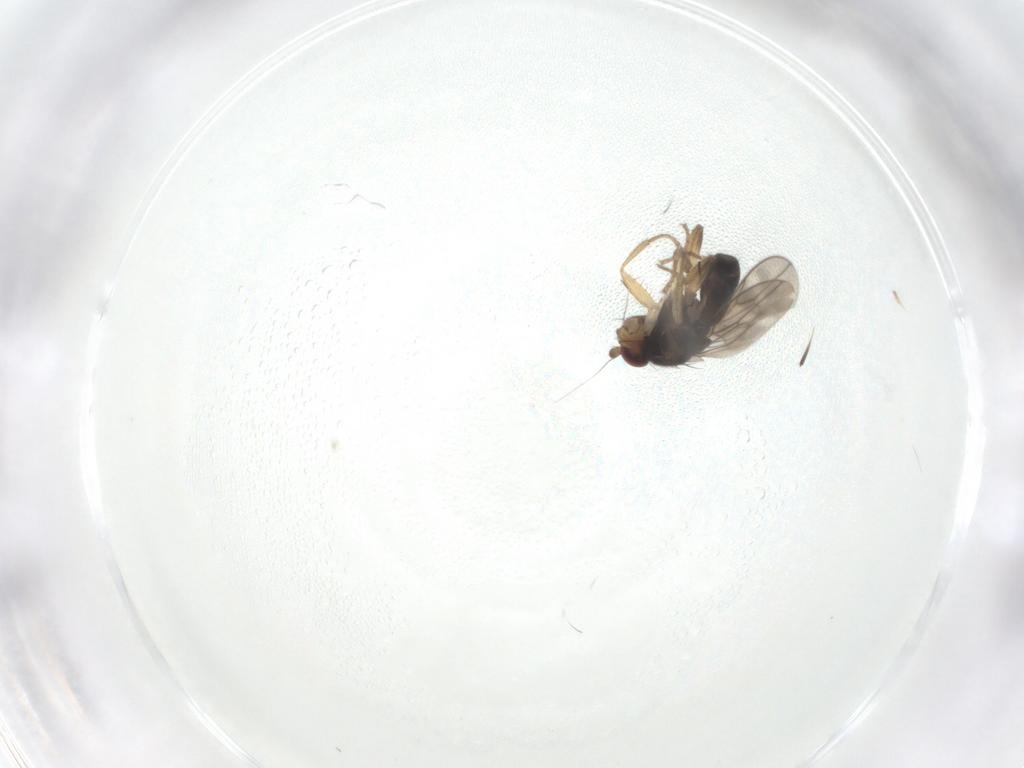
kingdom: Animalia
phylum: Arthropoda
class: Insecta
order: Diptera
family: Sphaeroceridae
